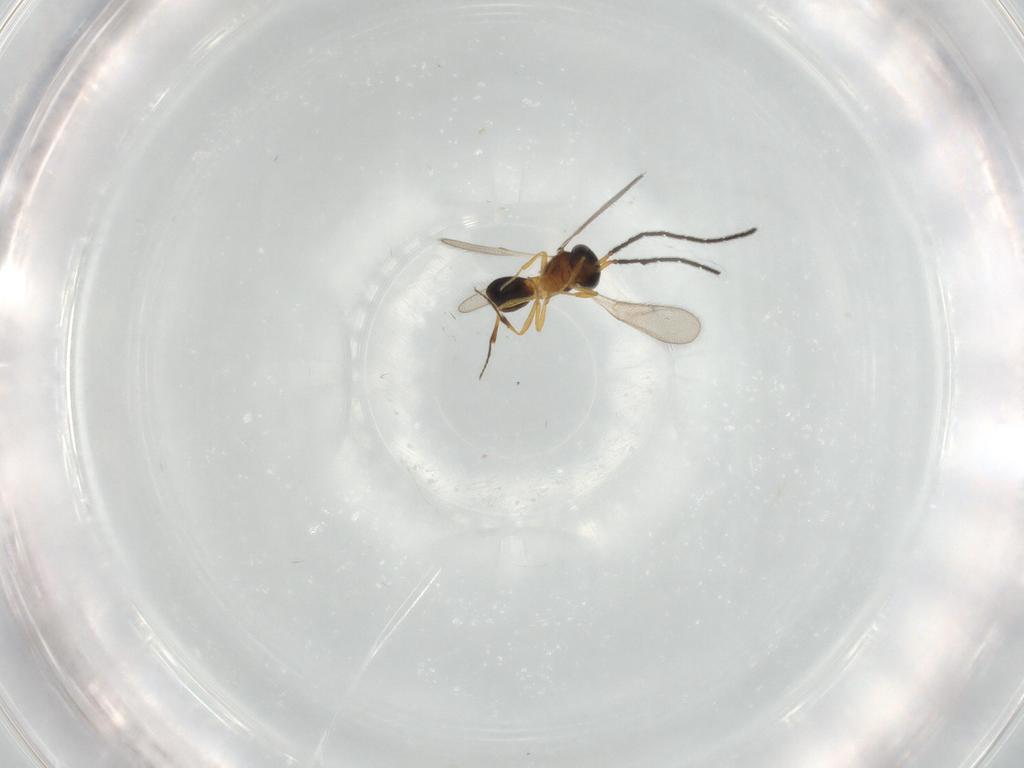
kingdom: Animalia
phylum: Arthropoda
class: Insecta
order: Hymenoptera
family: Scelionidae
